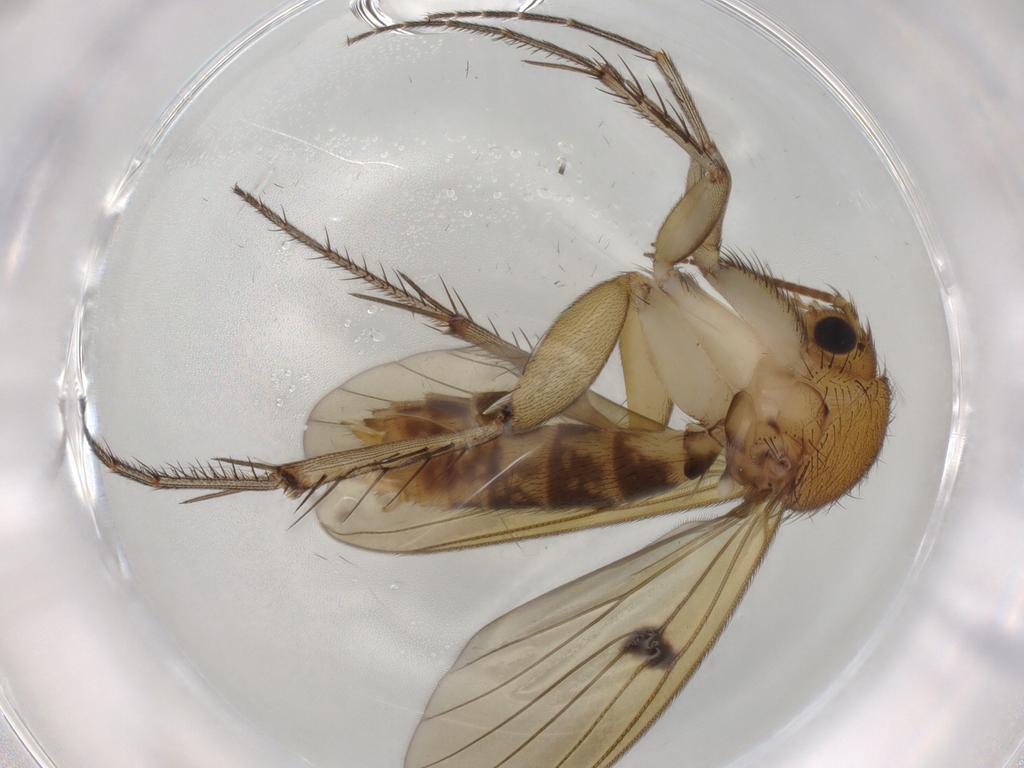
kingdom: Animalia
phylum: Arthropoda
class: Insecta
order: Diptera
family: Mycetophilidae
